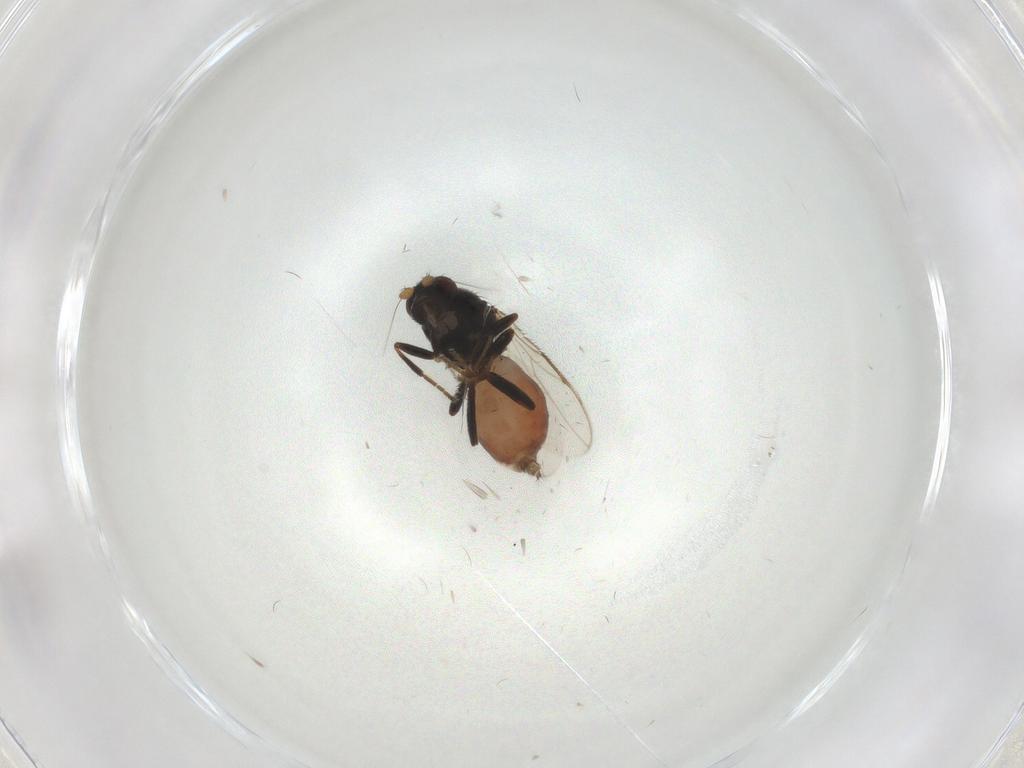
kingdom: Animalia
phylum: Arthropoda
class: Insecta
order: Diptera
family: Sphaeroceridae
